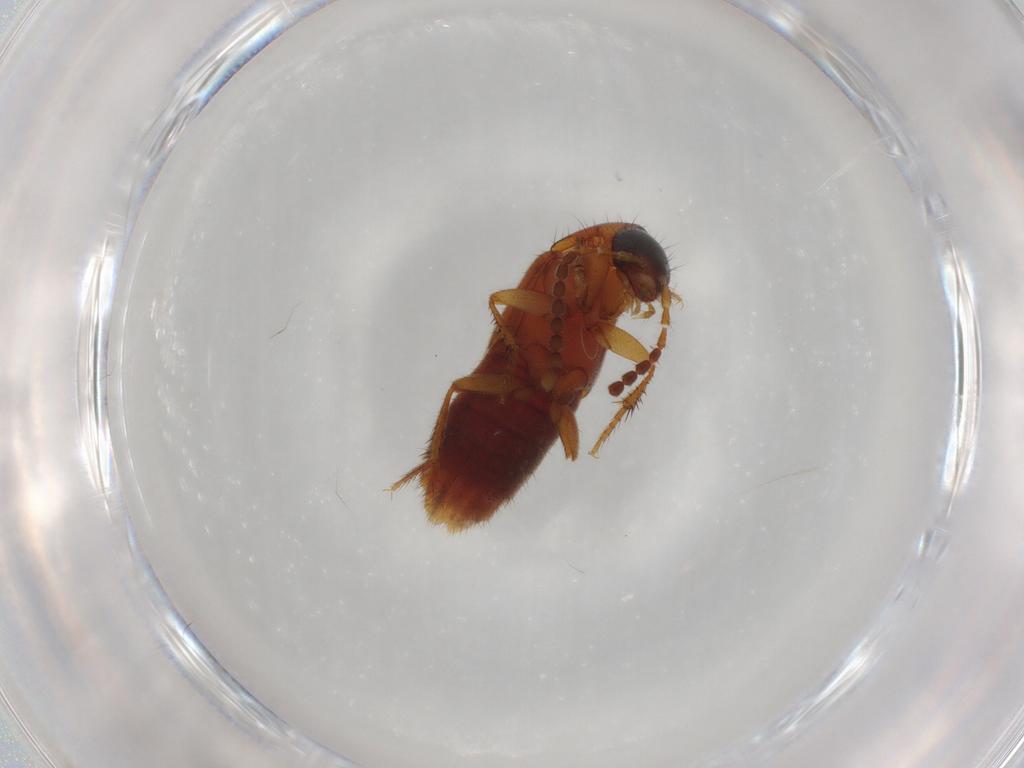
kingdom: Animalia
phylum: Arthropoda
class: Insecta
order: Coleoptera
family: Staphylinidae
